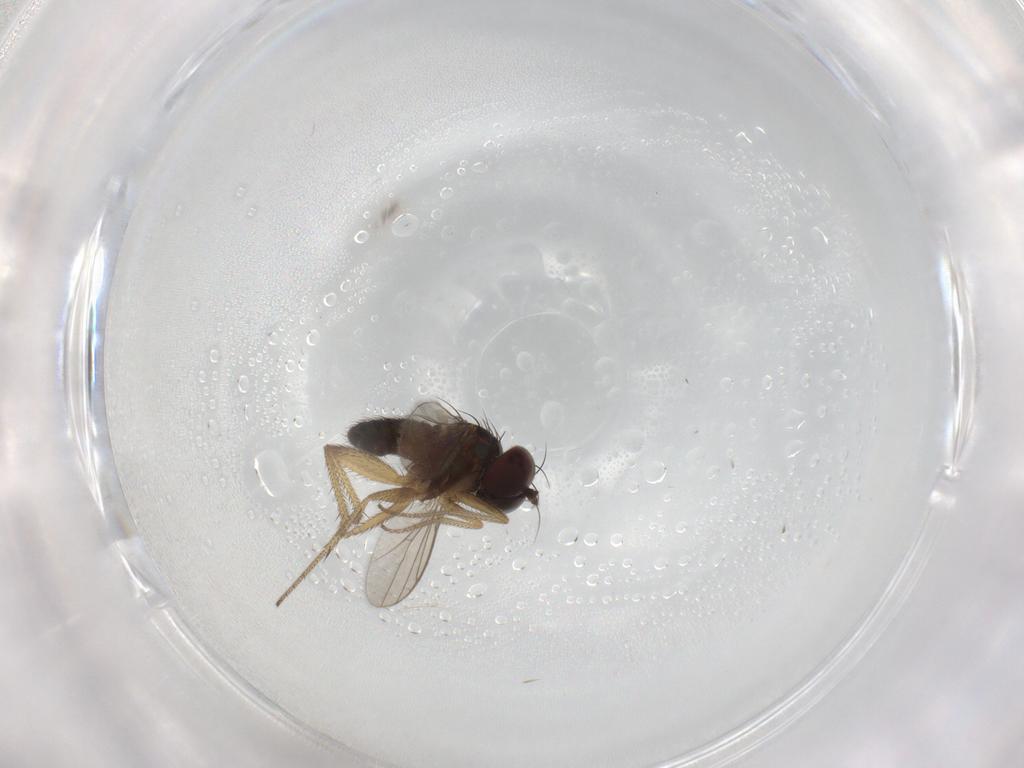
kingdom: Animalia
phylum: Arthropoda
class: Insecta
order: Diptera
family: Dolichopodidae
